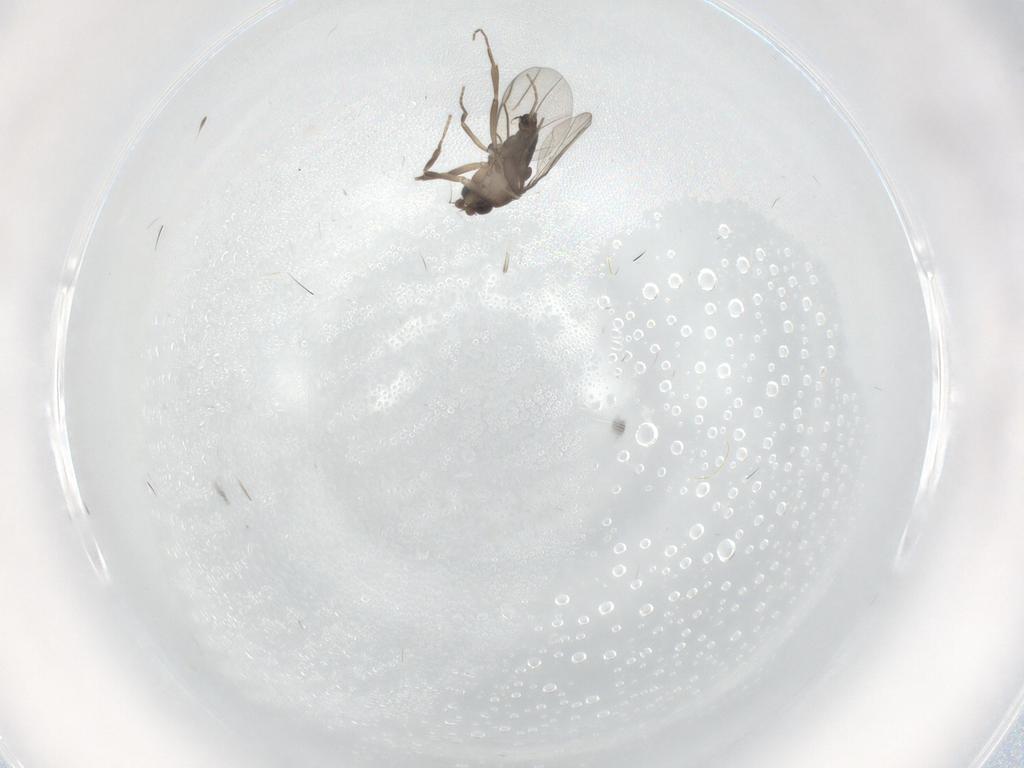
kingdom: Animalia
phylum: Arthropoda
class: Insecta
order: Diptera
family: Phoridae
